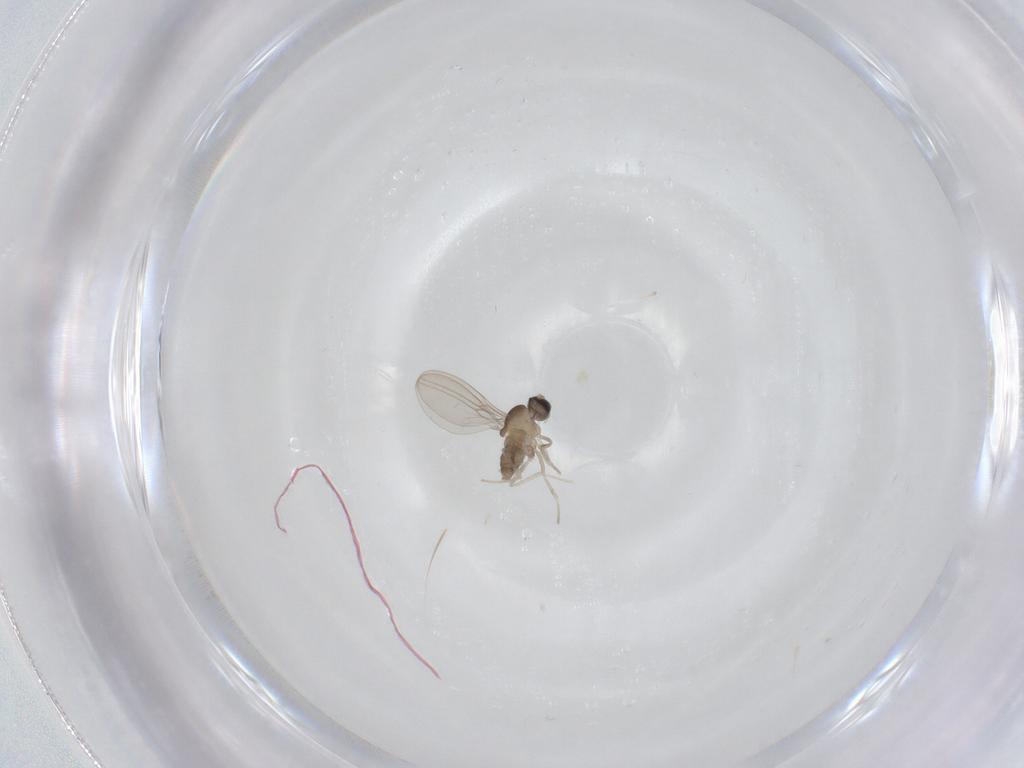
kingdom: Animalia
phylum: Arthropoda
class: Insecta
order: Diptera
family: Cecidomyiidae
